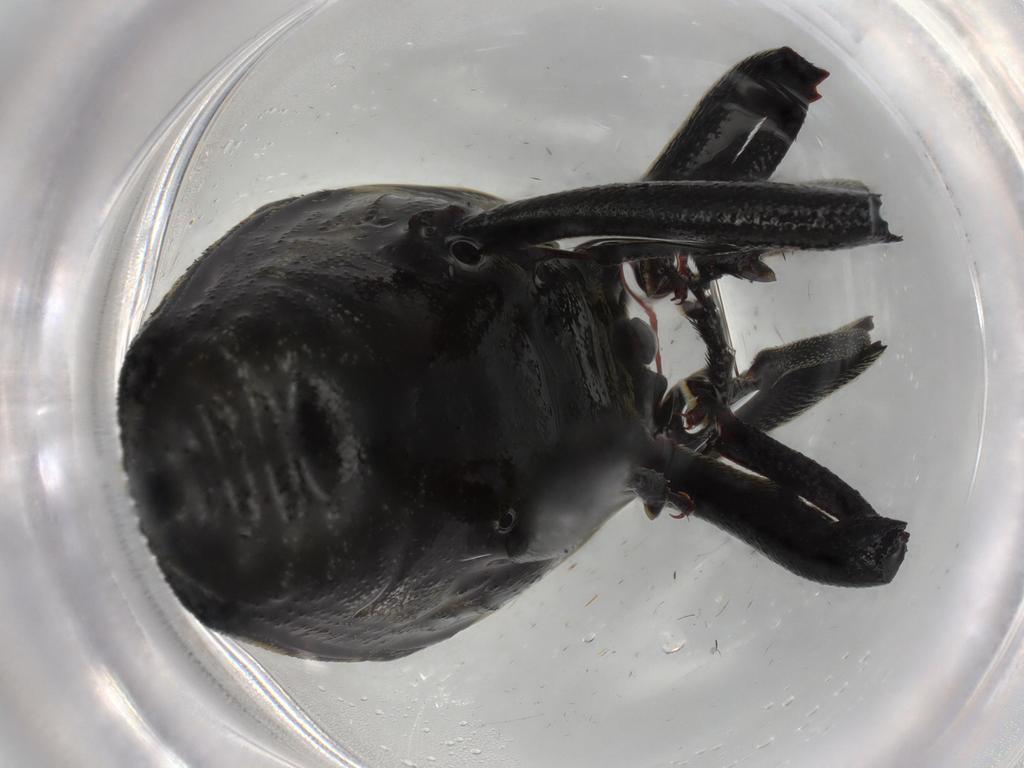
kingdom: Animalia
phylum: Arthropoda
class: Insecta
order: Coleoptera
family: Curculionidae
